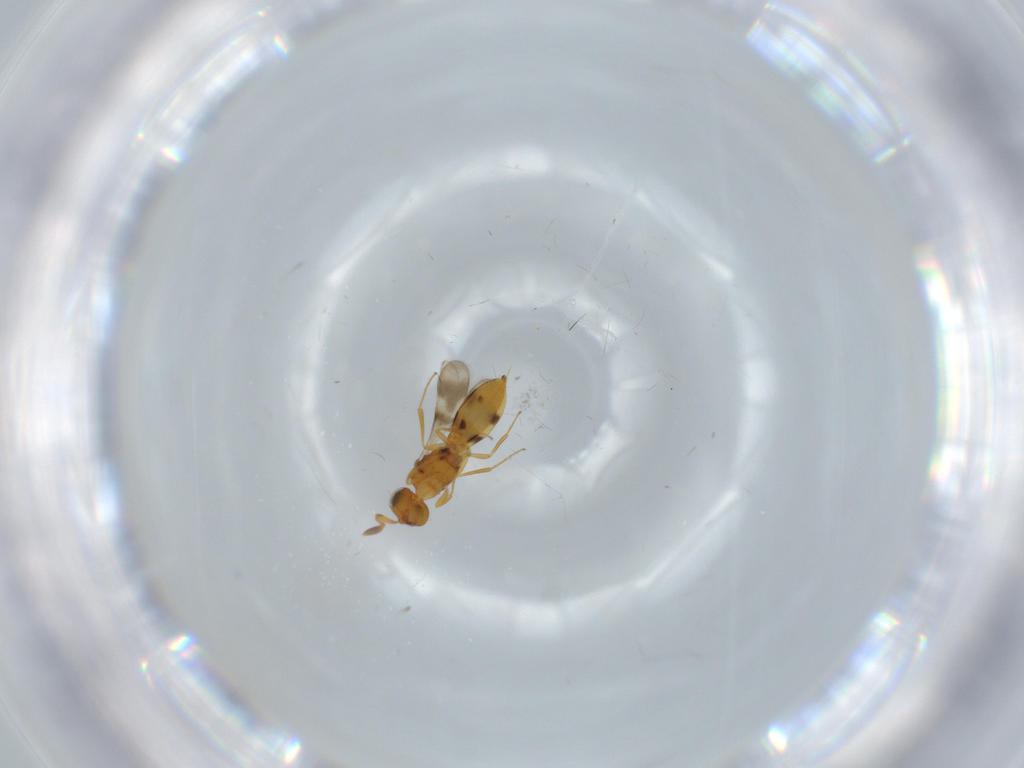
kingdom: Animalia
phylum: Arthropoda
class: Insecta
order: Hymenoptera
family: Scelionidae
